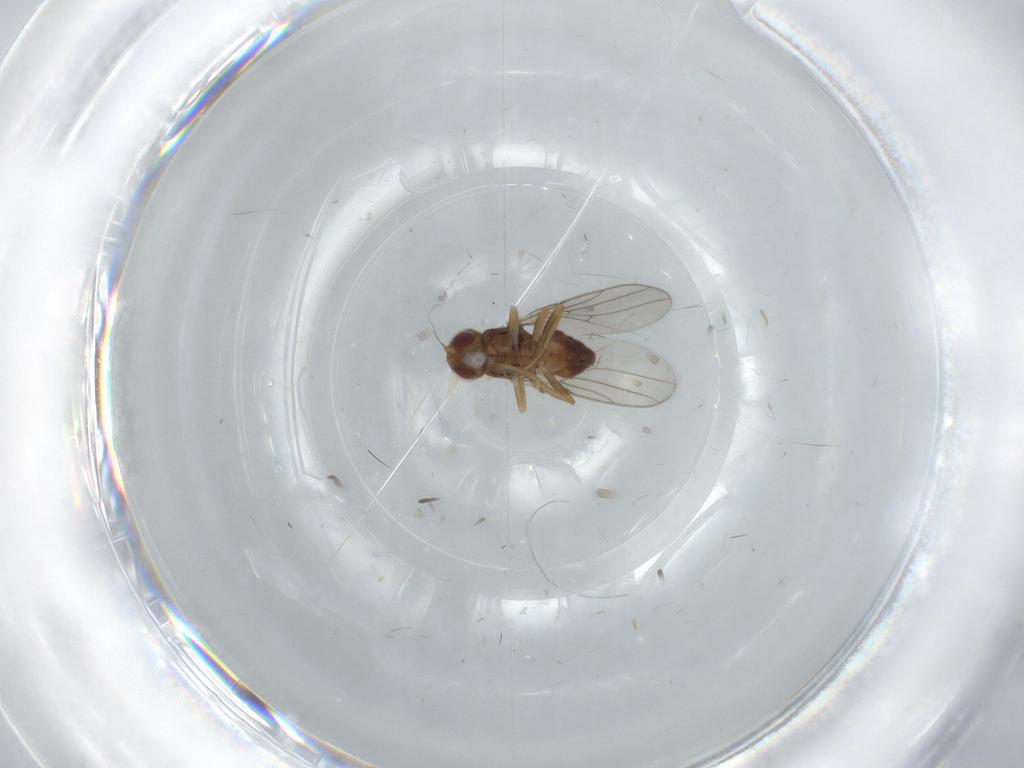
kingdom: Animalia
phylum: Arthropoda
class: Insecta
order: Diptera
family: Chloropidae
